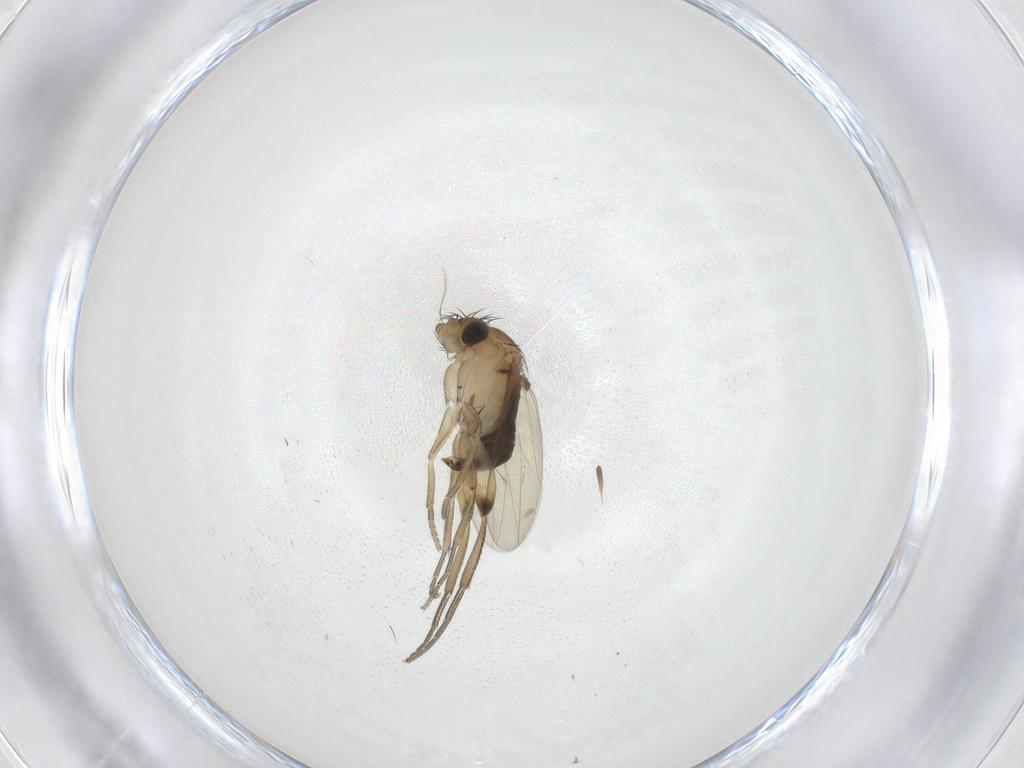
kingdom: Animalia
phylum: Arthropoda
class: Insecta
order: Diptera
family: Phoridae
